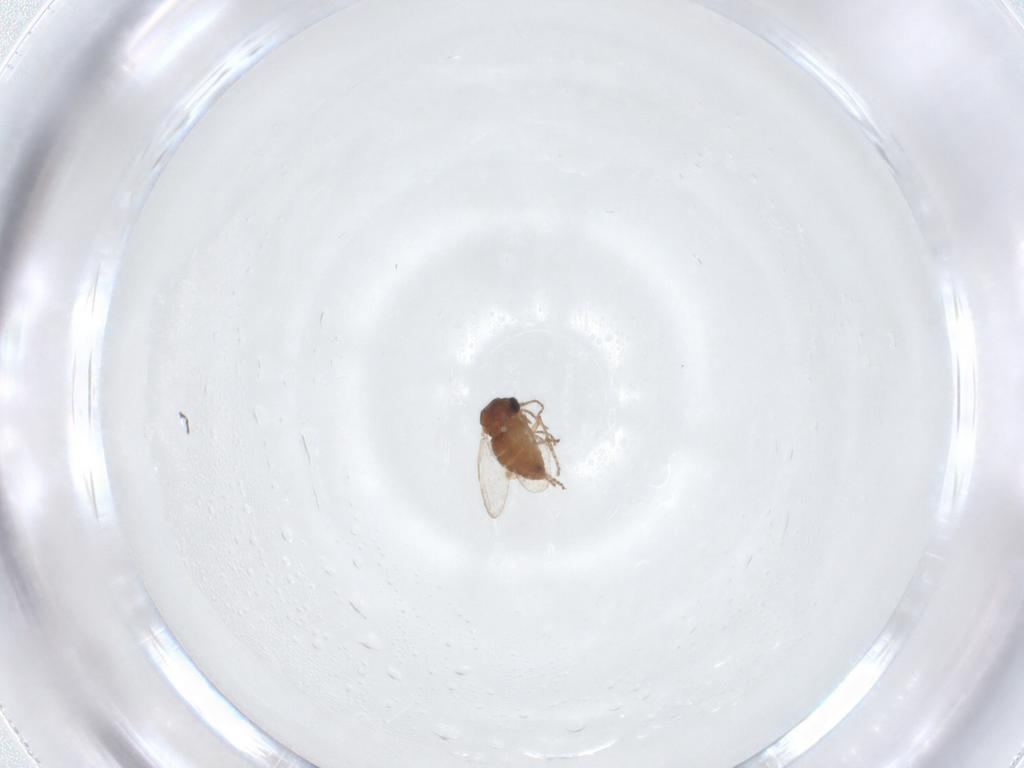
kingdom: Animalia
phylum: Arthropoda
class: Insecta
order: Diptera
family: Ceratopogonidae
